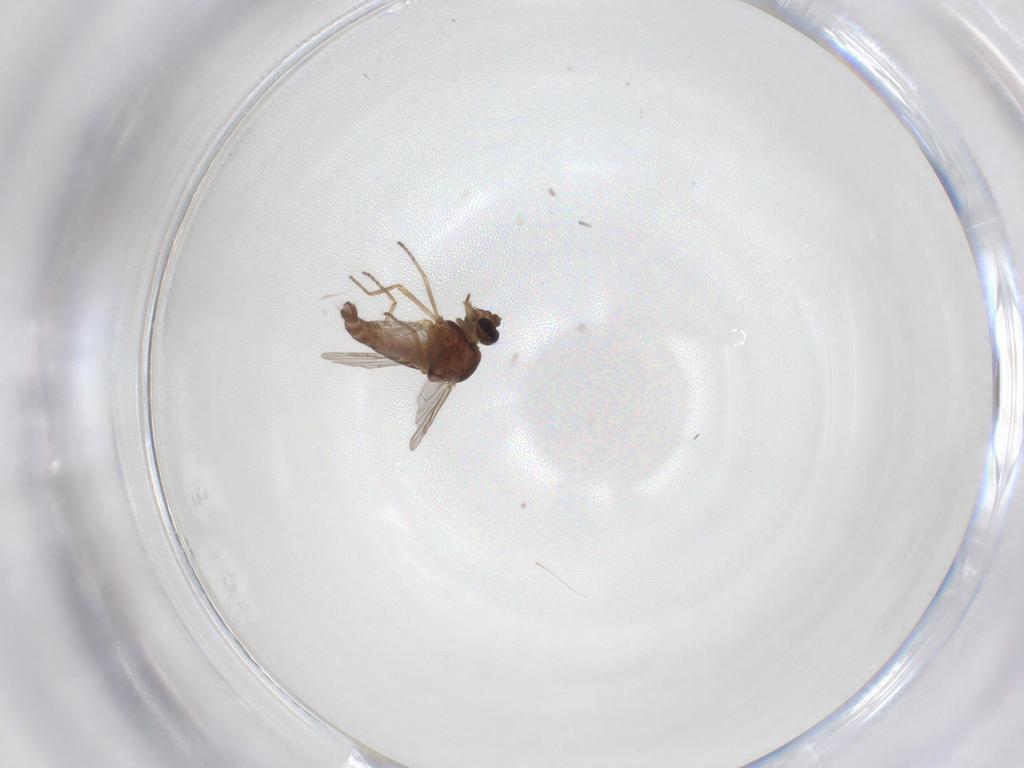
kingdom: Animalia
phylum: Arthropoda
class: Insecta
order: Diptera
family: Ceratopogonidae
